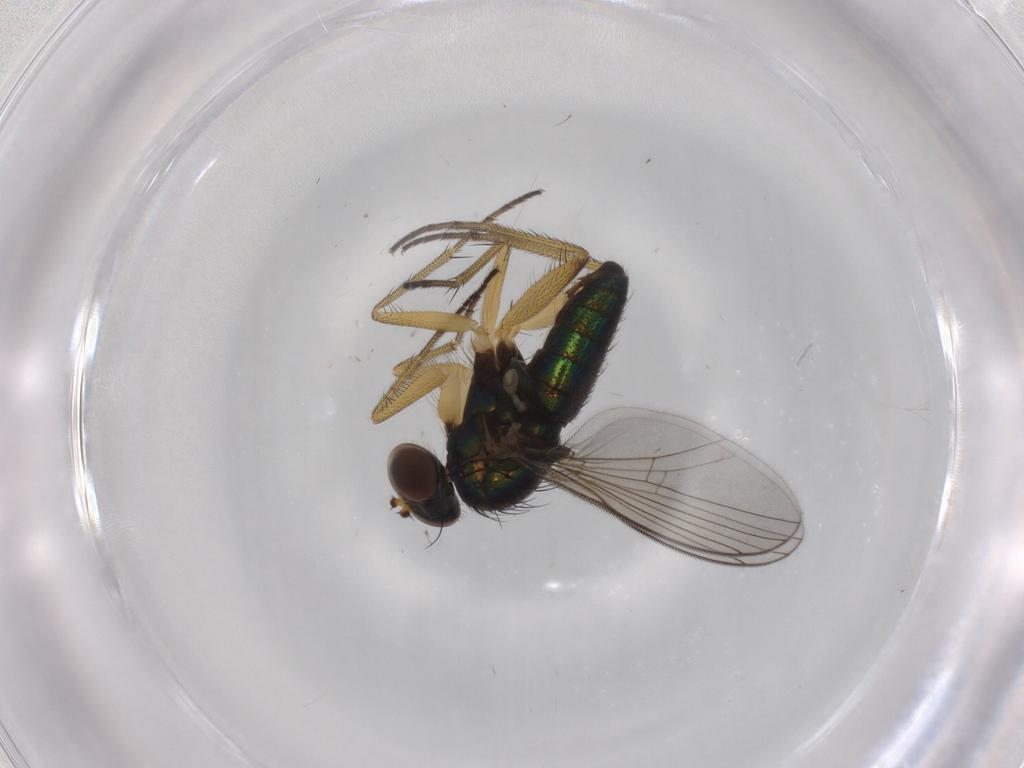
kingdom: Animalia
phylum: Arthropoda
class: Insecta
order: Diptera
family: Dolichopodidae
